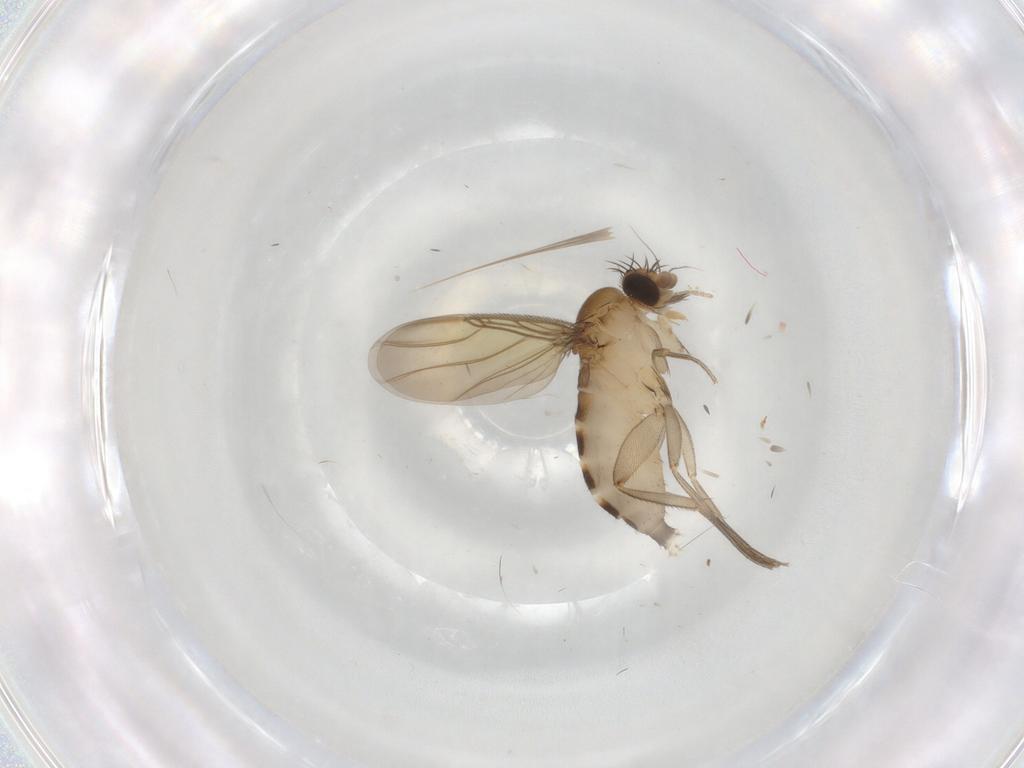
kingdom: Animalia
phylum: Arthropoda
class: Insecta
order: Diptera
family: Phoridae
